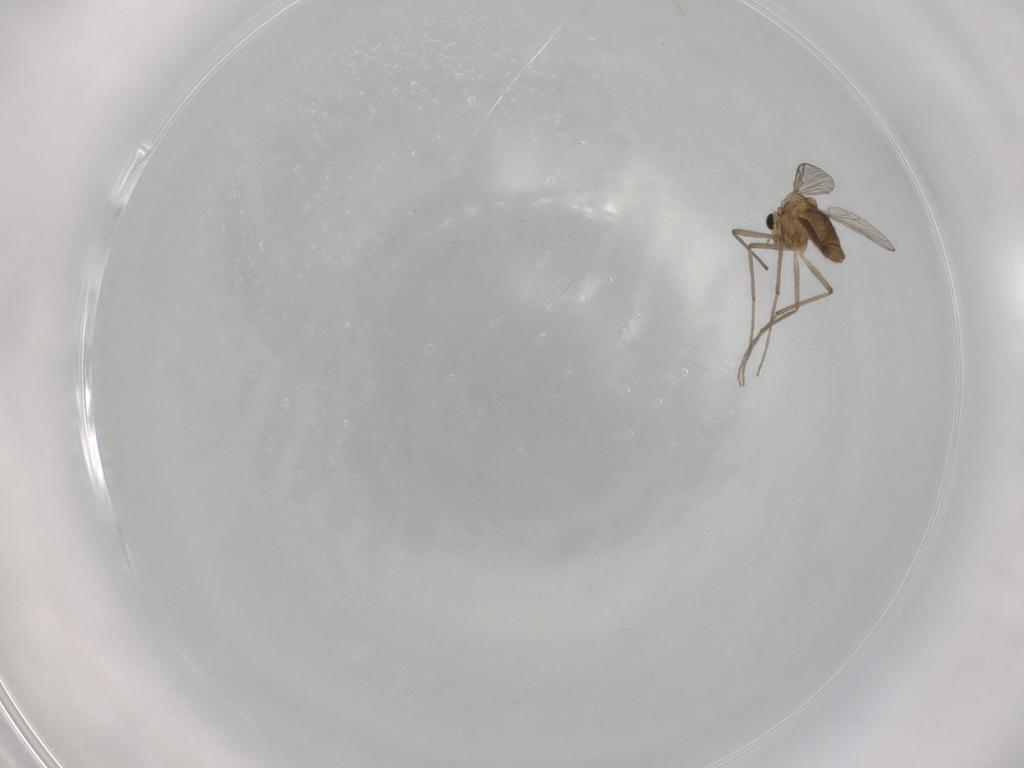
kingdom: Animalia
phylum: Arthropoda
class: Insecta
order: Diptera
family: Chironomidae
